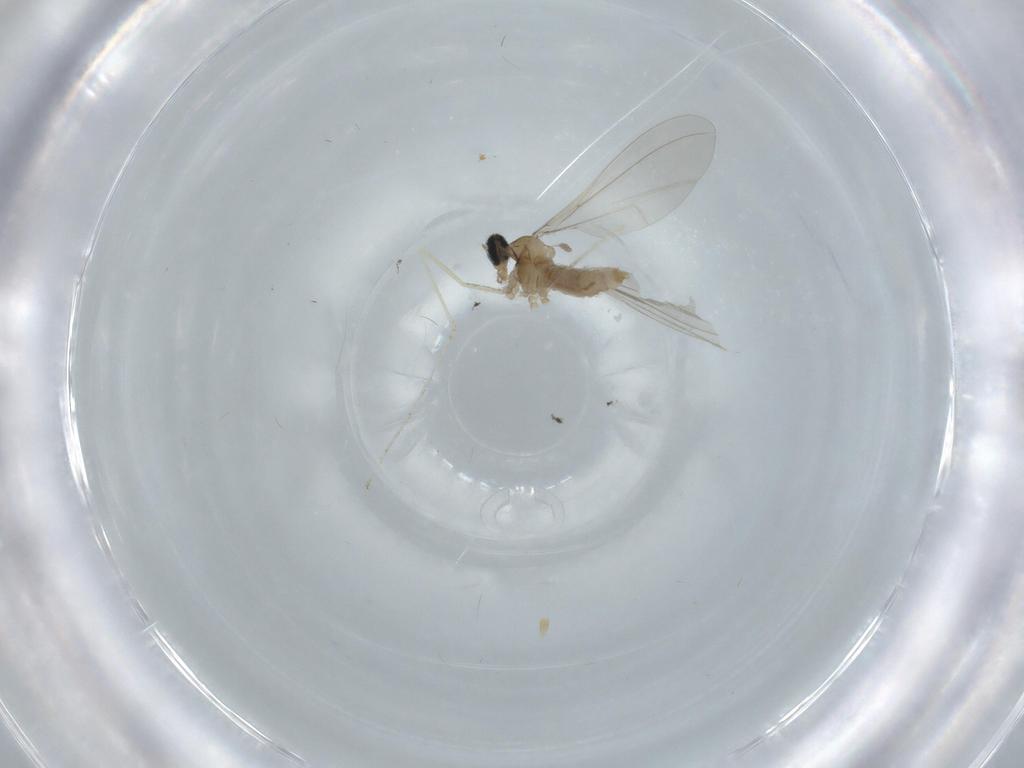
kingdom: Animalia
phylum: Arthropoda
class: Insecta
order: Diptera
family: Cecidomyiidae
